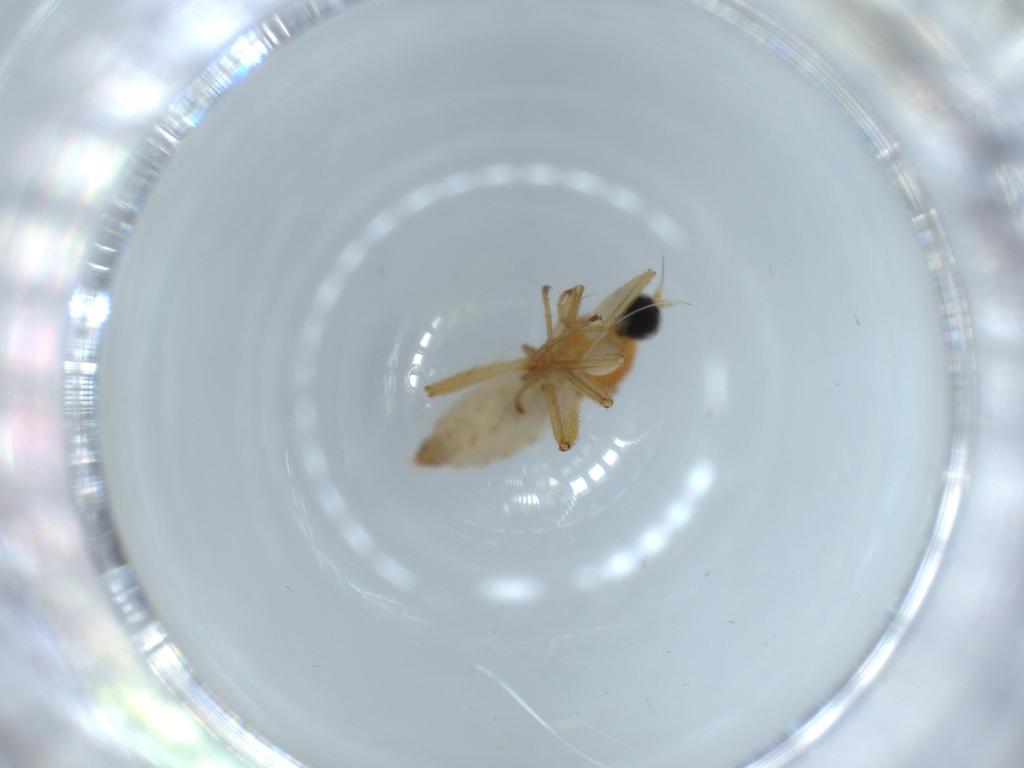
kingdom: Animalia
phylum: Arthropoda
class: Insecta
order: Diptera
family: Hybotidae
